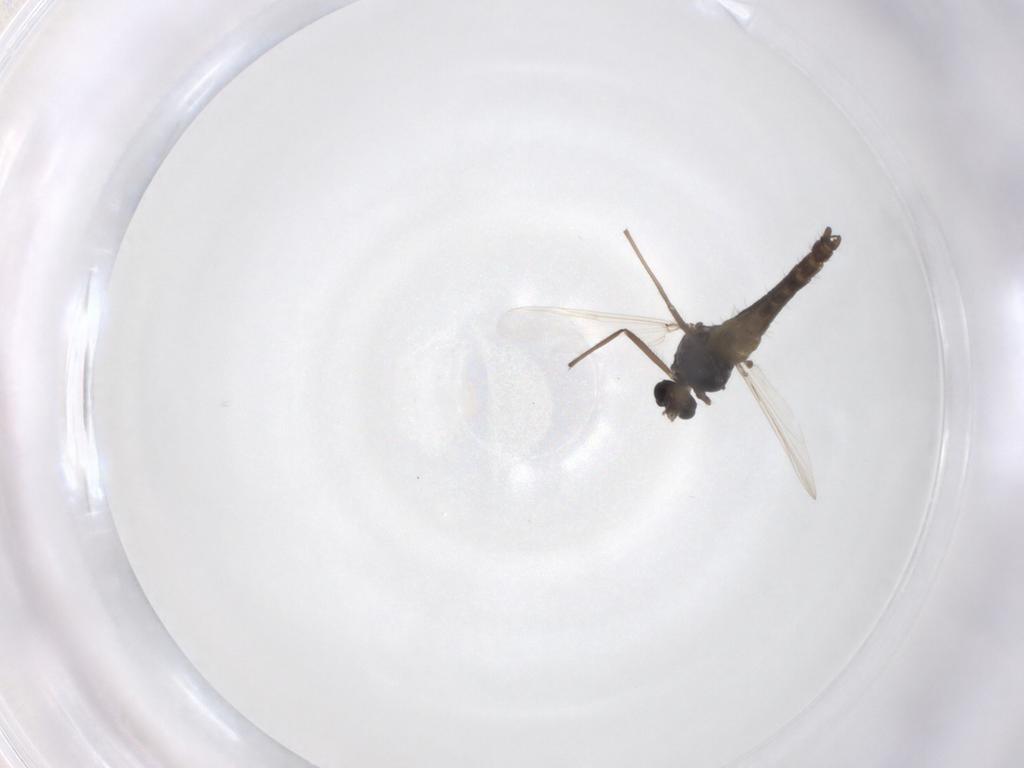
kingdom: Animalia
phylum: Arthropoda
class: Insecta
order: Diptera
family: Chironomidae
